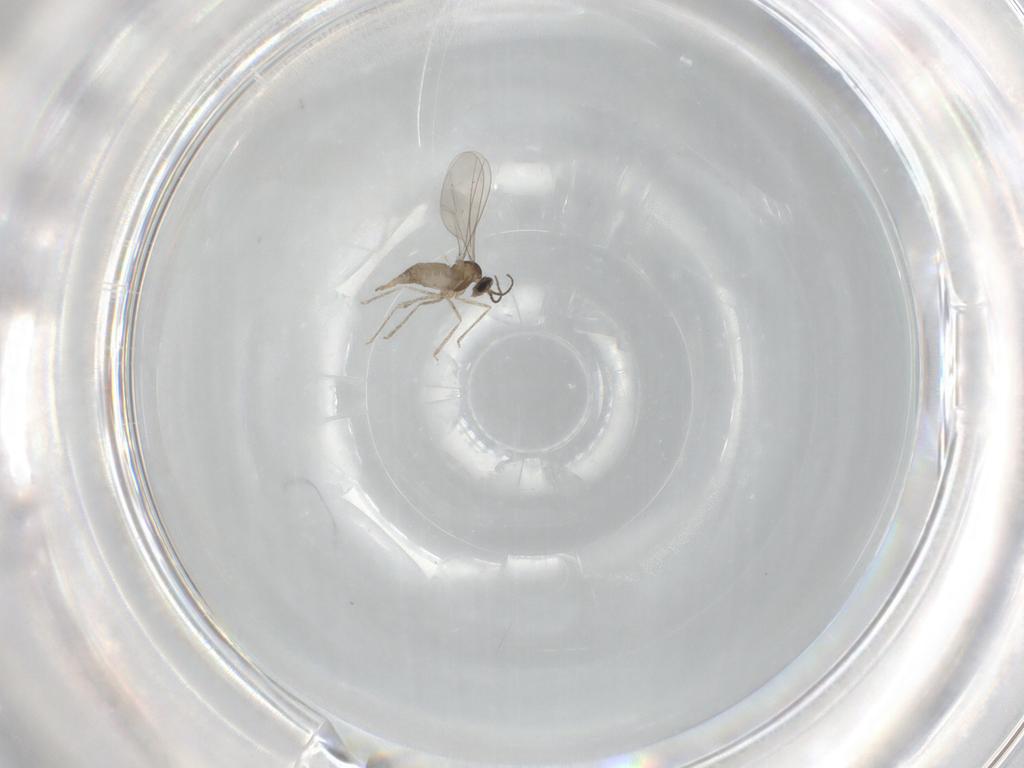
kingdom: Animalia
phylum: Arthropoda
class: Insecta
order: Diptera
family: Cecidomyiidae
